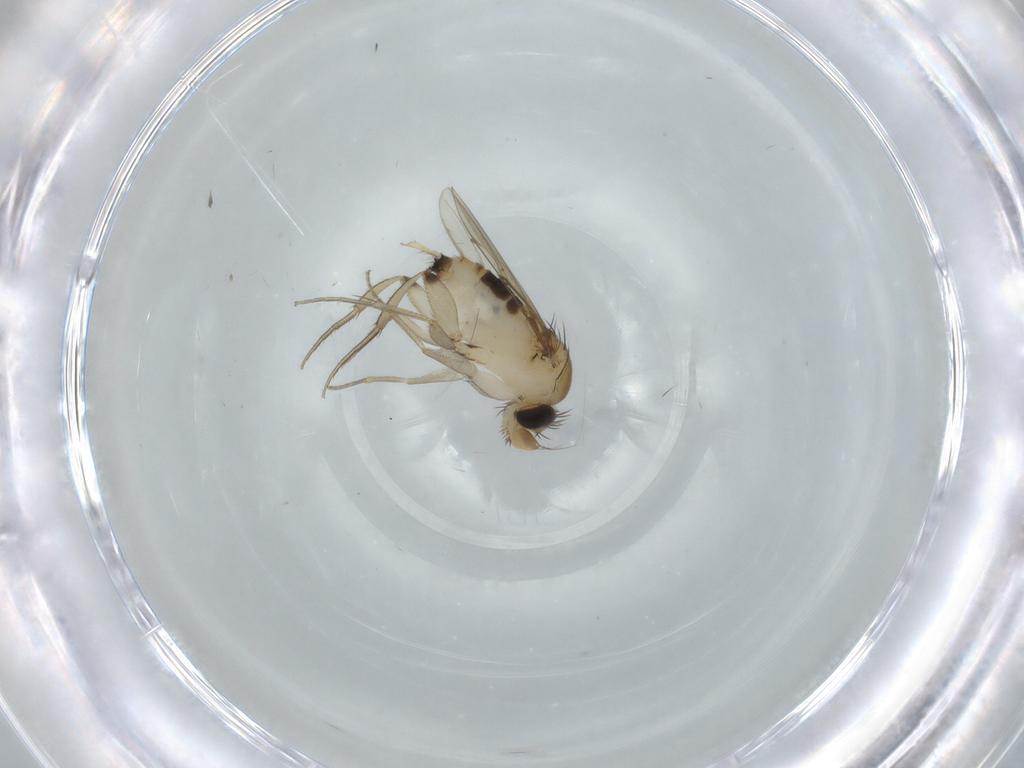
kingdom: Animalia
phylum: Arthropoda
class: Insecta
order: Diptera
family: Phoridae
